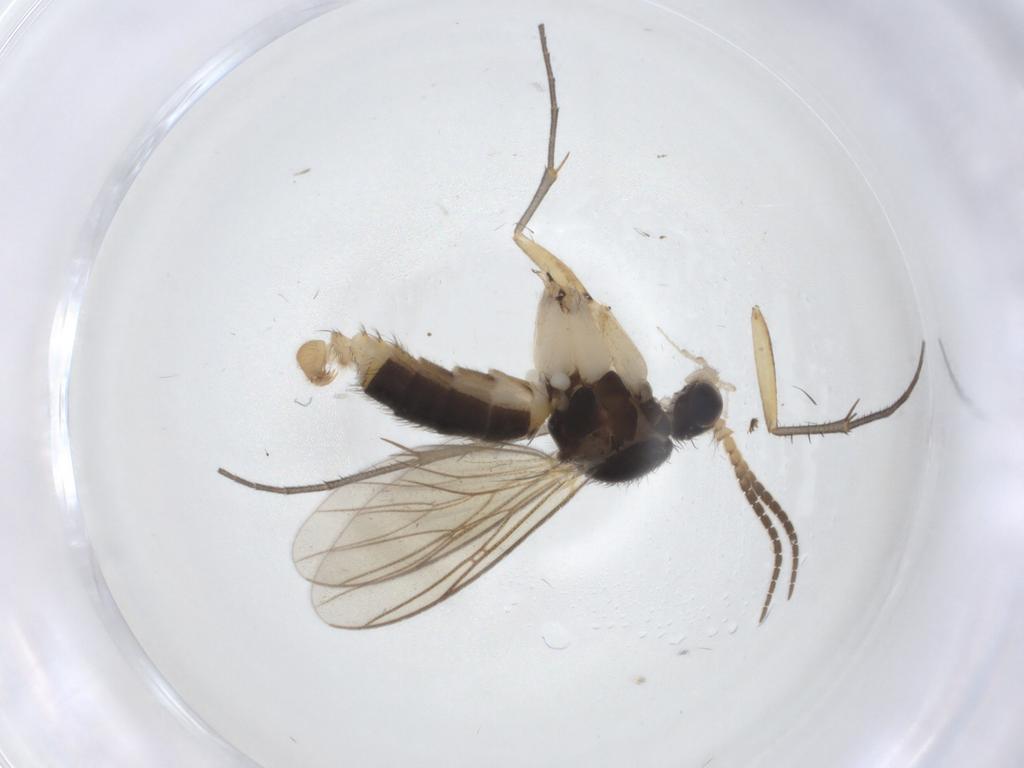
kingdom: Animalia
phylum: Arthropoda
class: Insecta
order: Diptera
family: Mycetophilidae
